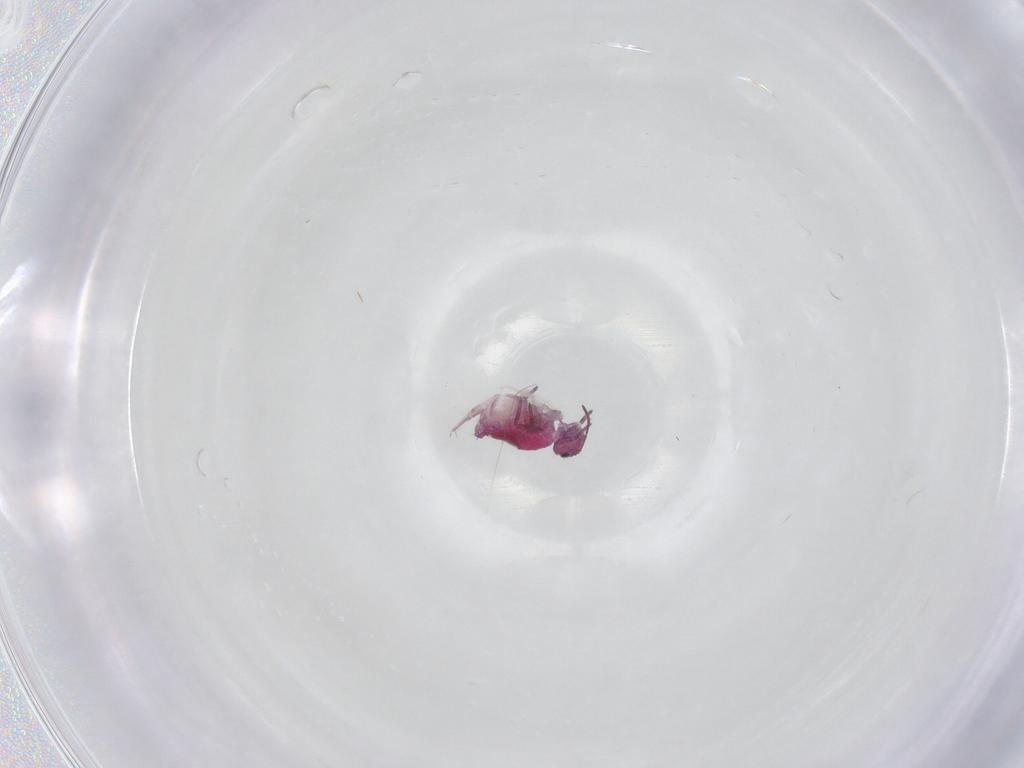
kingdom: Animalia
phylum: Arthropoda
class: Collembola
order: Symphypleona
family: Sminthuridae
